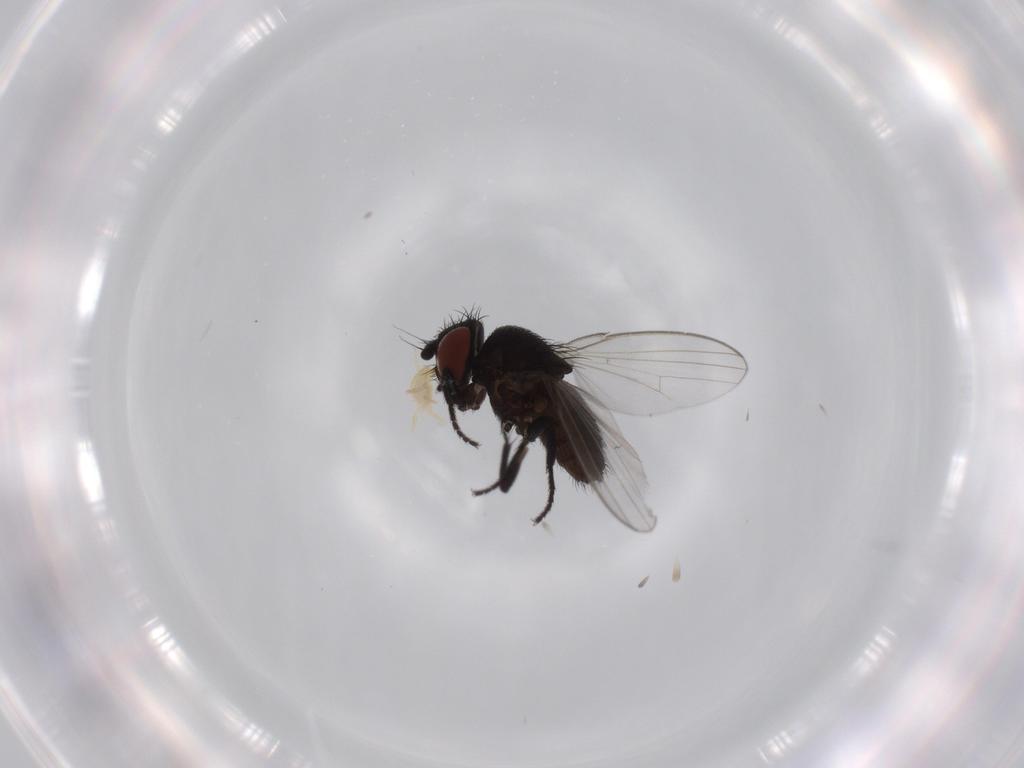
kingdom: Animalia
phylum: Arthropoda
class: Insecta
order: Diptera
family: Milichiidae
